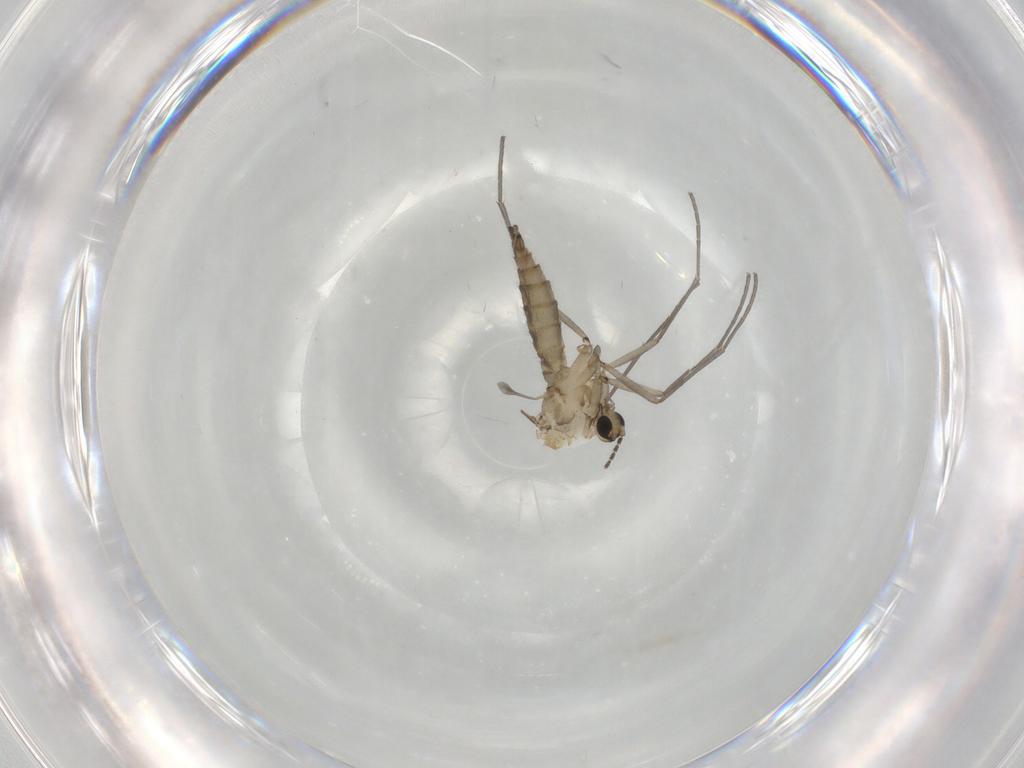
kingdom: Animalia
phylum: Arthropoda
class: Insecta
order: Diptera
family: Sciaridae
